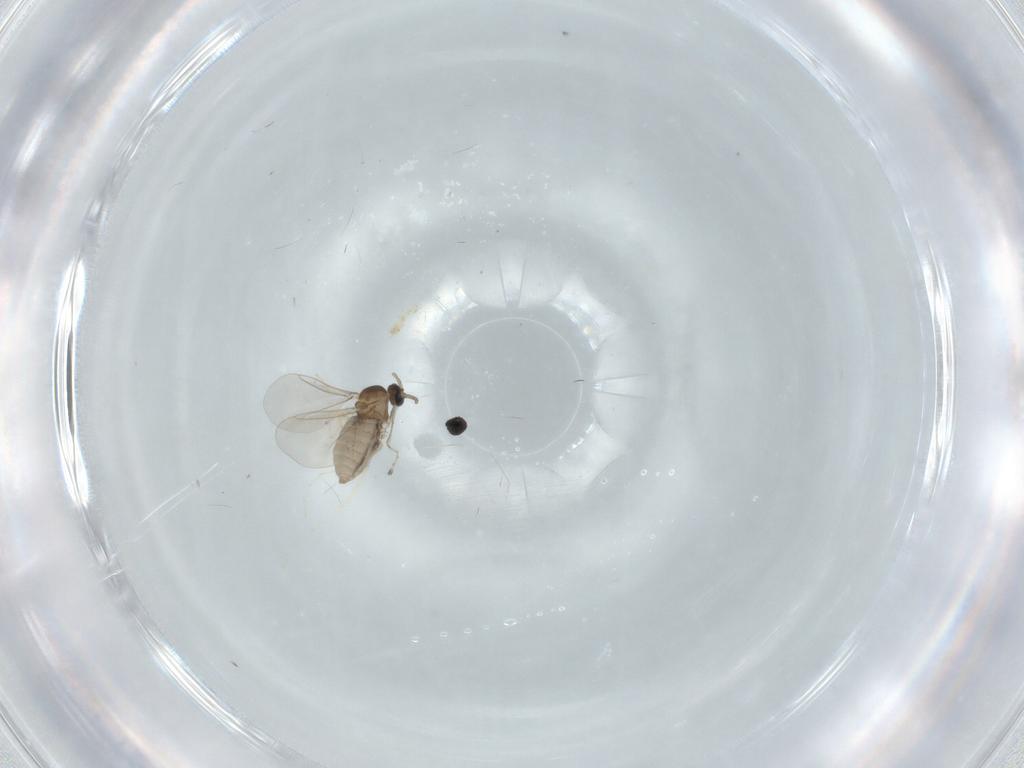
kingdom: Animalia
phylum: Arthropoda
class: Insecta
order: Diptera
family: Cecidomyiidae
